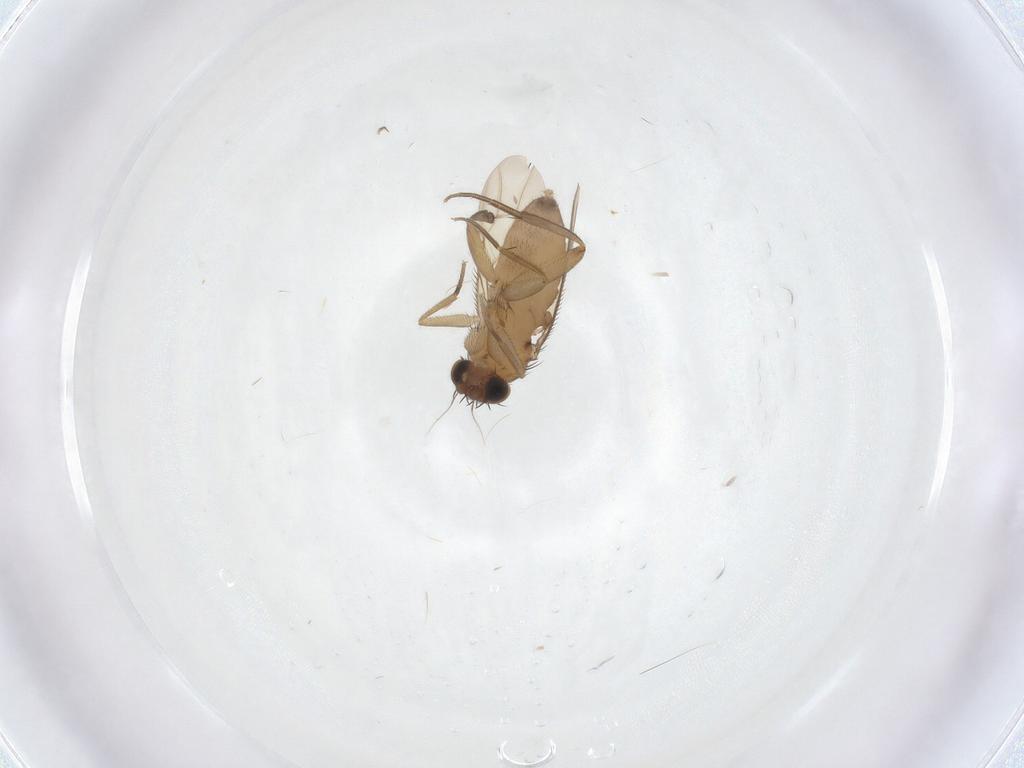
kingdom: Animalia
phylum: Arthropoda
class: Insecta
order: Diptera
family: Phoridae
